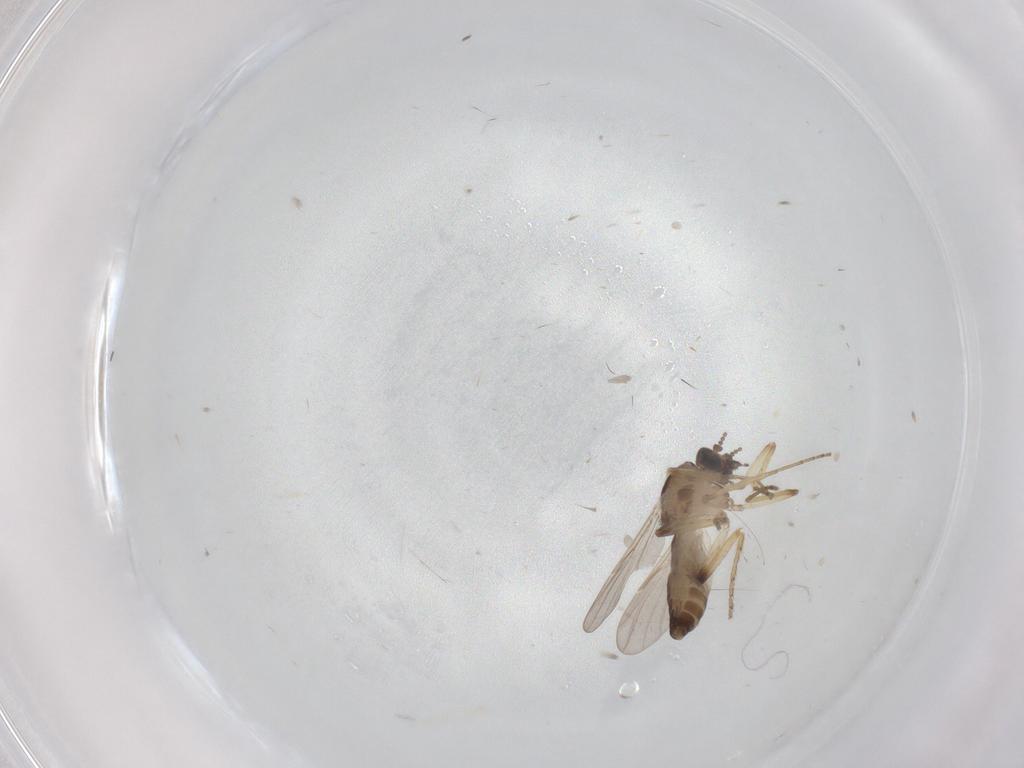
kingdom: Animalia
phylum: Arthropoda
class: Insecta
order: Diptera
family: Ceratopogonidae
